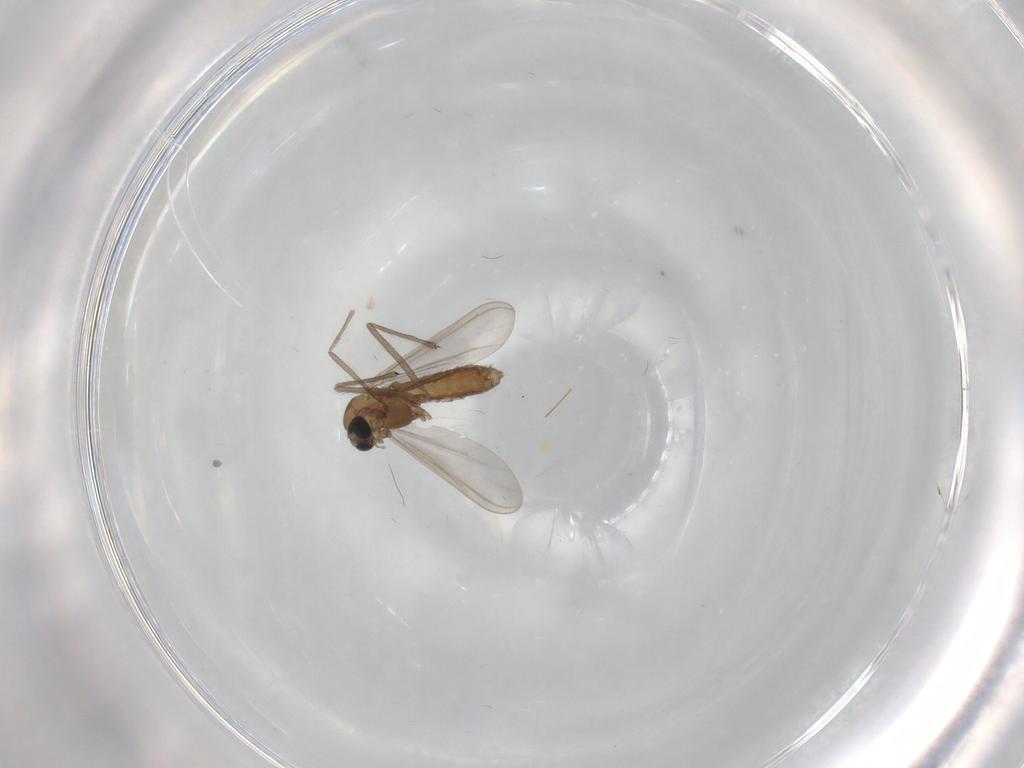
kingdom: Animalia
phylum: Arthropoda
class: Insecta
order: Diptera
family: Chironomidae
